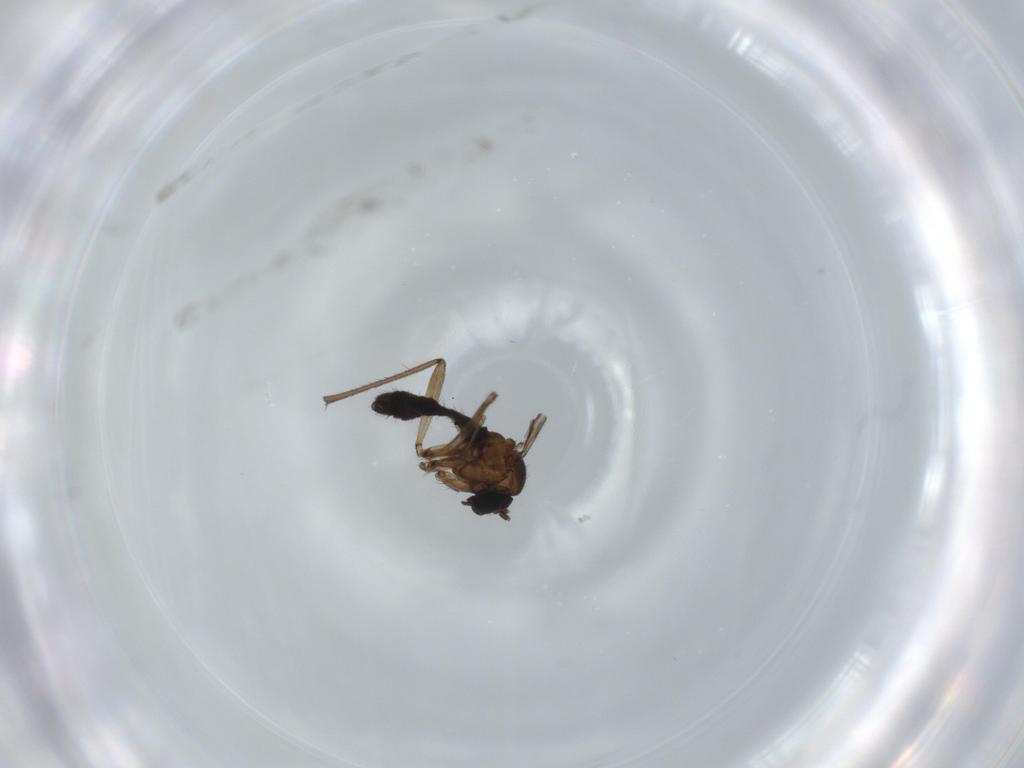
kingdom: Animalia
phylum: Arthropoda
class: Insecta
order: Diptera
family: Sciaridae
